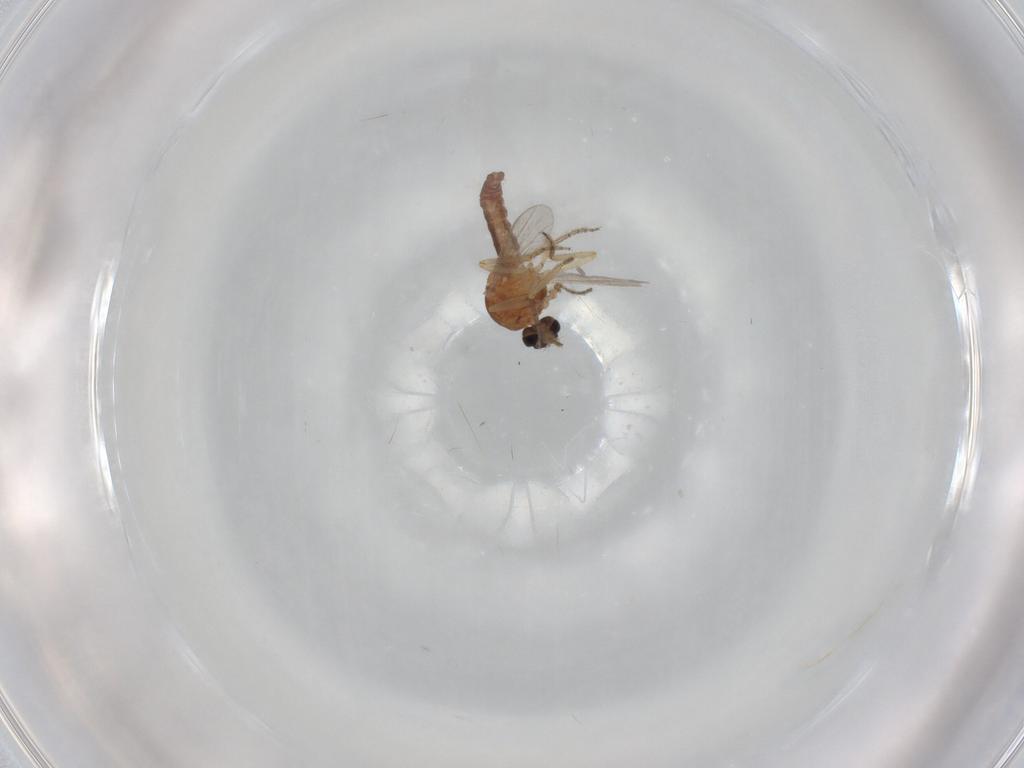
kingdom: Animalia
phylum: Arthropoda
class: Insecta
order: Diptera
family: Ceratopogonidae
